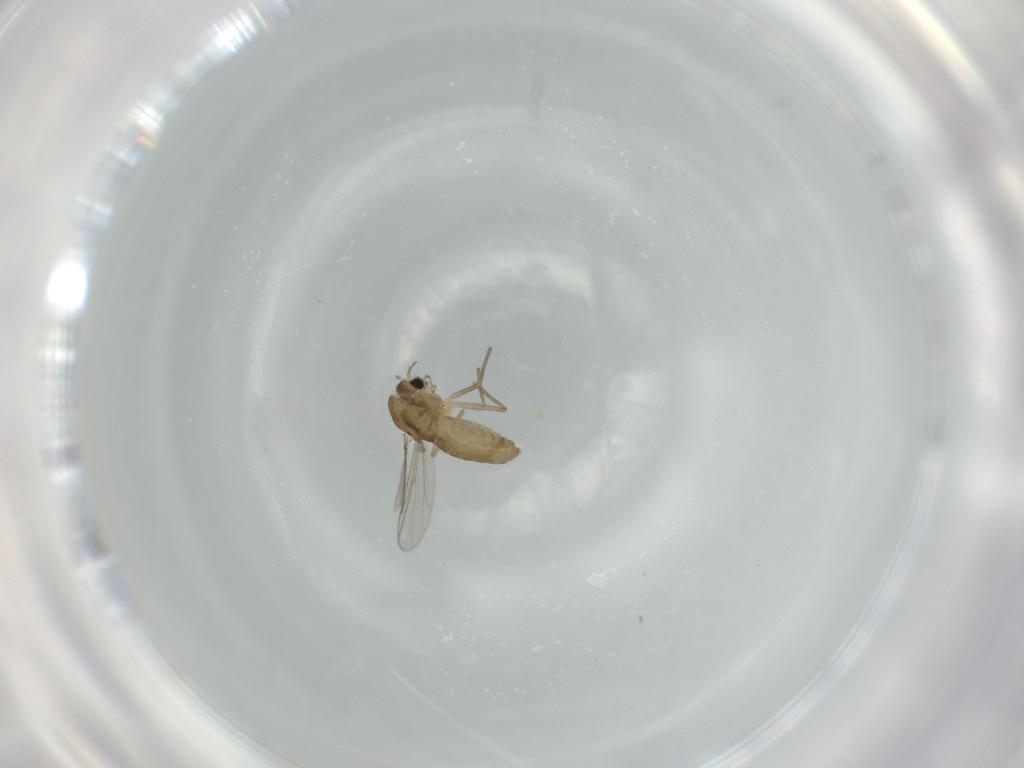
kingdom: Animalia
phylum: Arthropoda
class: Insecta
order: Diptera
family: Chironomidae
